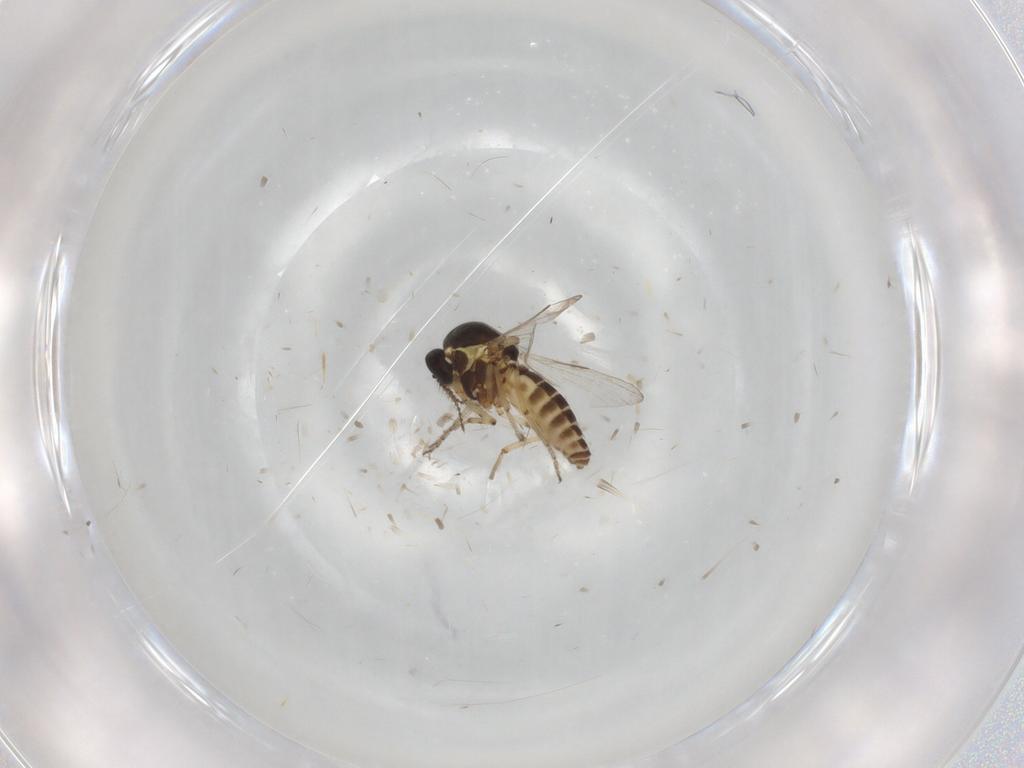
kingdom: Animalia
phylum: Arthropoda
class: Insecta
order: Diptera
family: Ceratopogonidae
